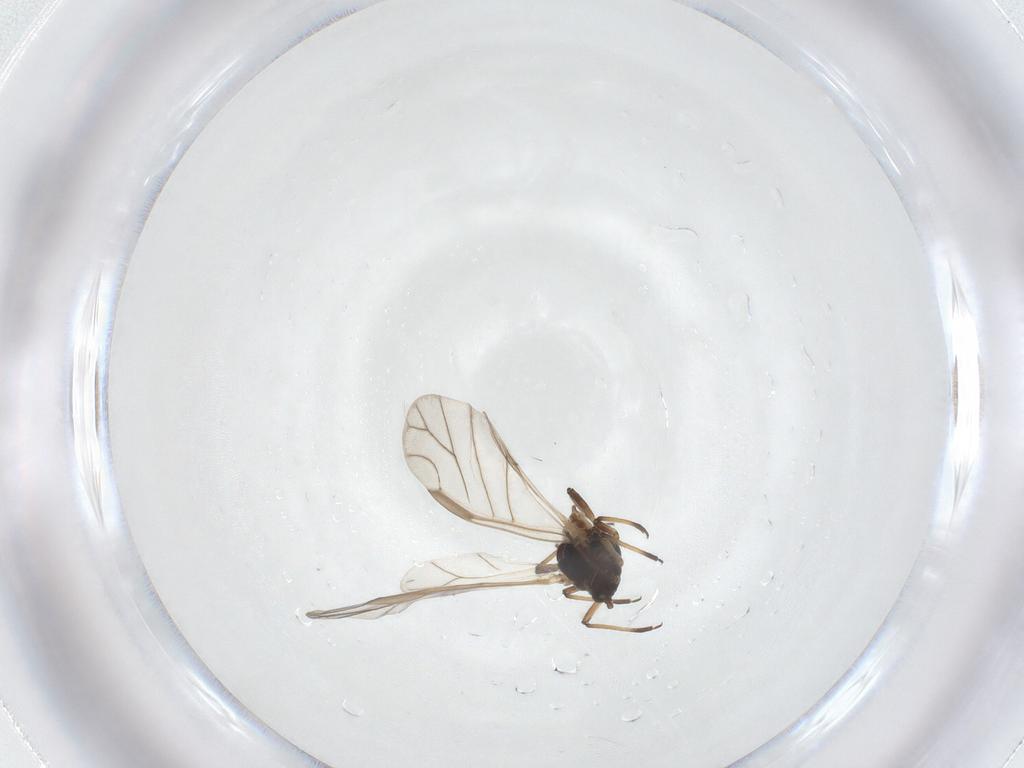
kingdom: Animalia
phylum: Arthropoda
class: Insecta
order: Hemiptera
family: Aphididae
